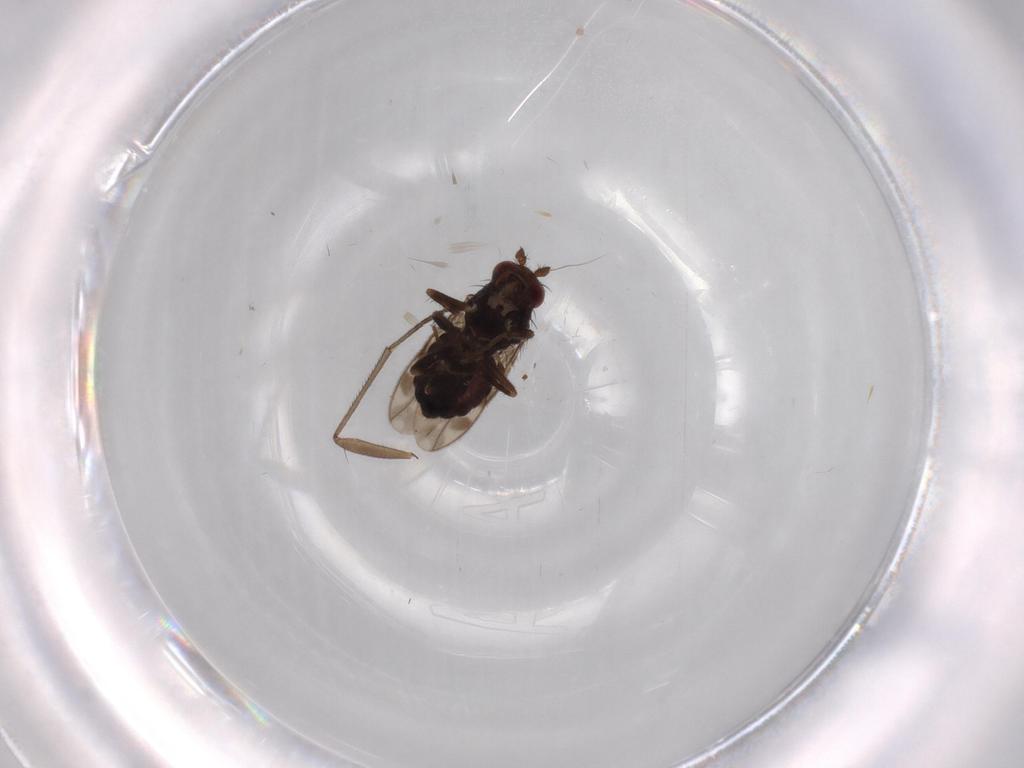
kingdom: Animalia
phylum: Arthropoda
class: Insecta
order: Diptera
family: Sphaeroceridae
